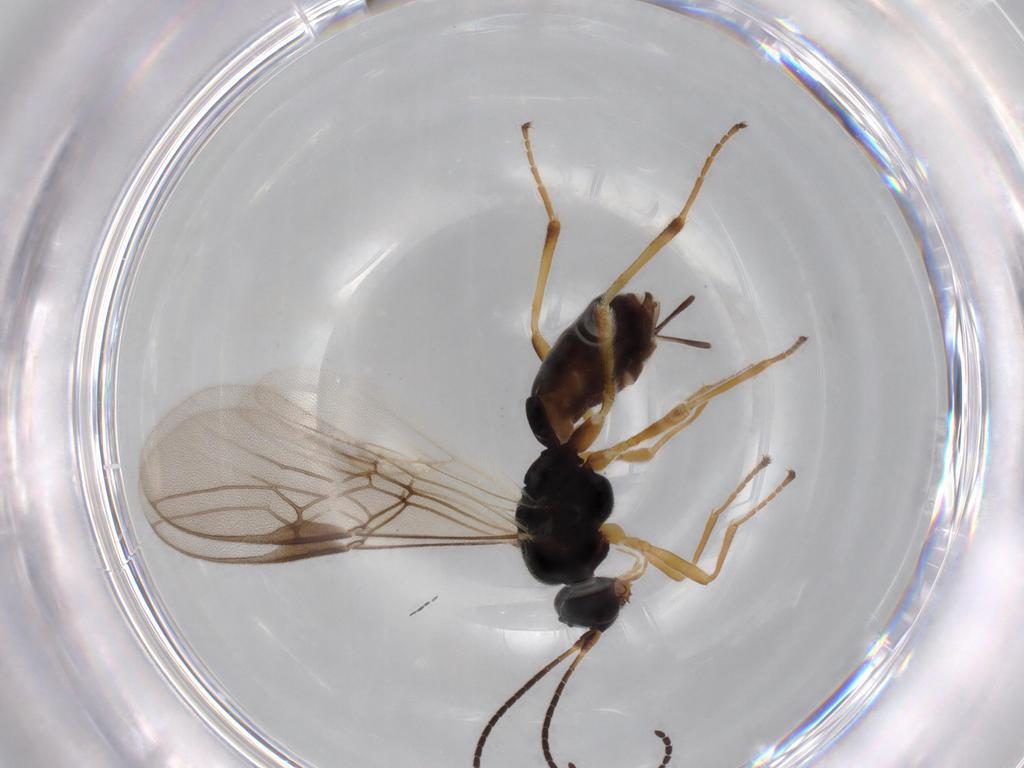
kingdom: Animalia
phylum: Arthropoda
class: Insecta
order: Hymenoptera
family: Braconidae
